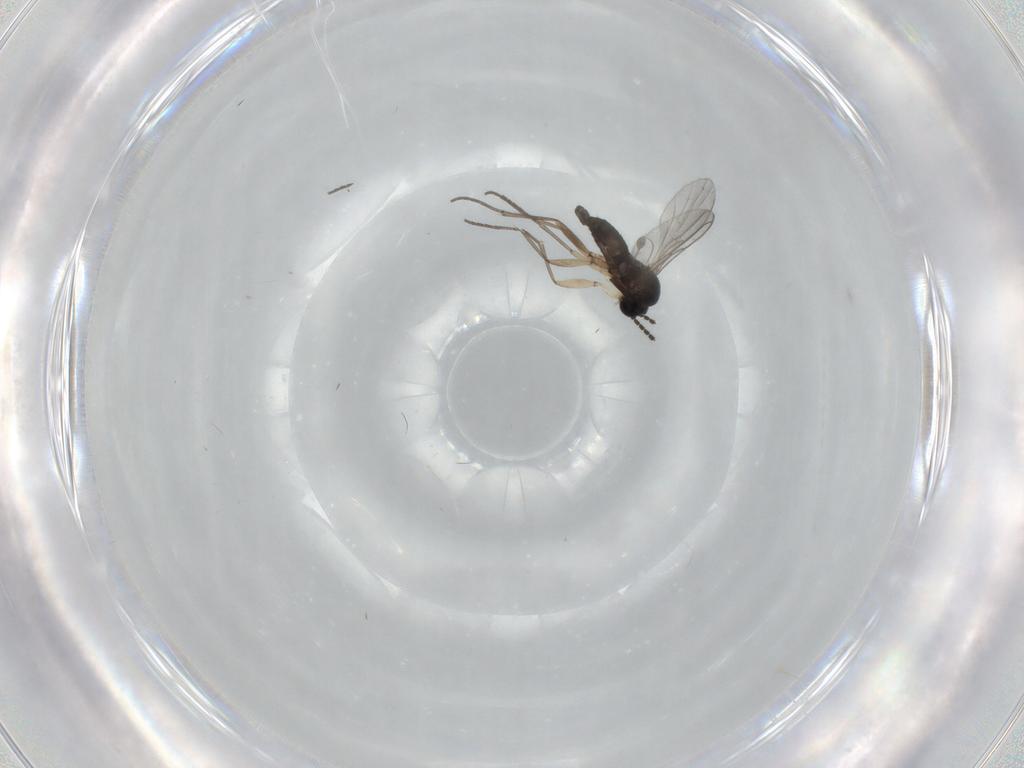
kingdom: Animalia
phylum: Arthropoda
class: Insecta
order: Diptera
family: Sciaridae
